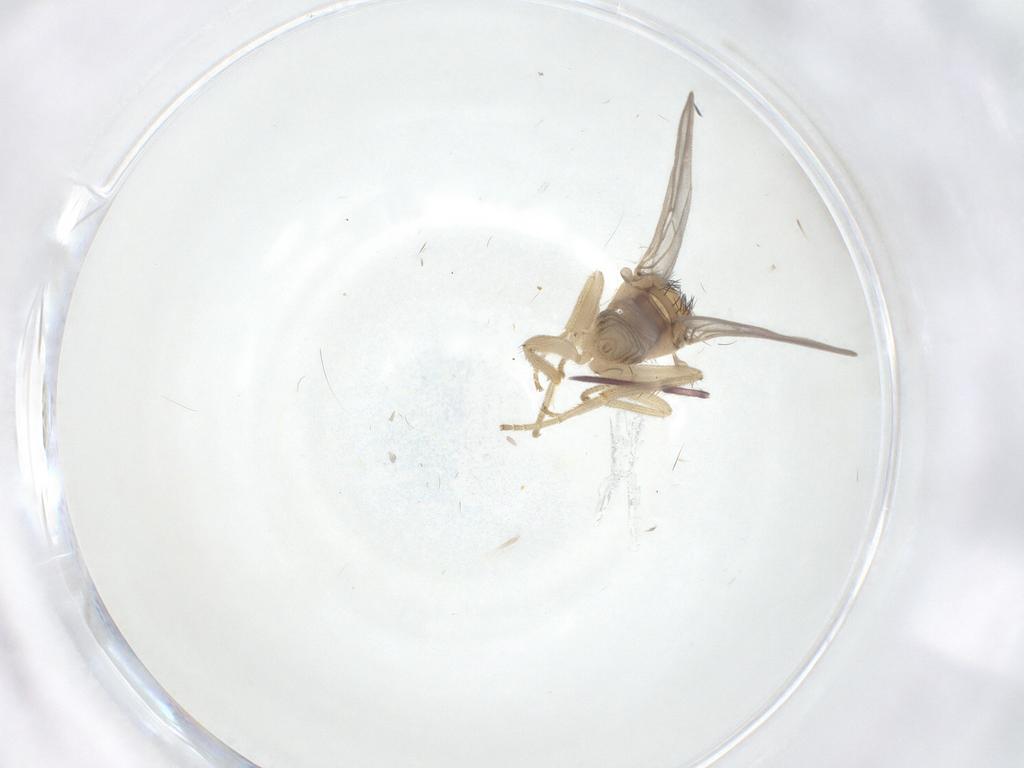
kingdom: Animalia
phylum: Arthropoda
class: Insecta
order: Diptera
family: Hybotidae
